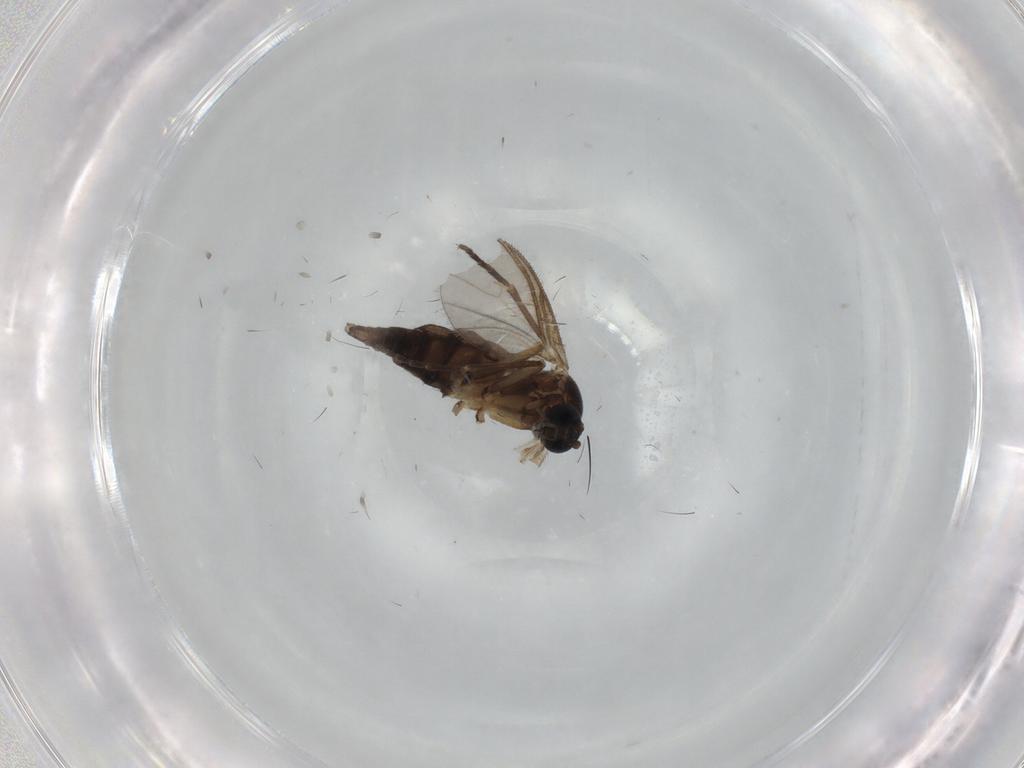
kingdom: Animalia
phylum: Arthropoda
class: Insecta
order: Diptera
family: Sciaridae
